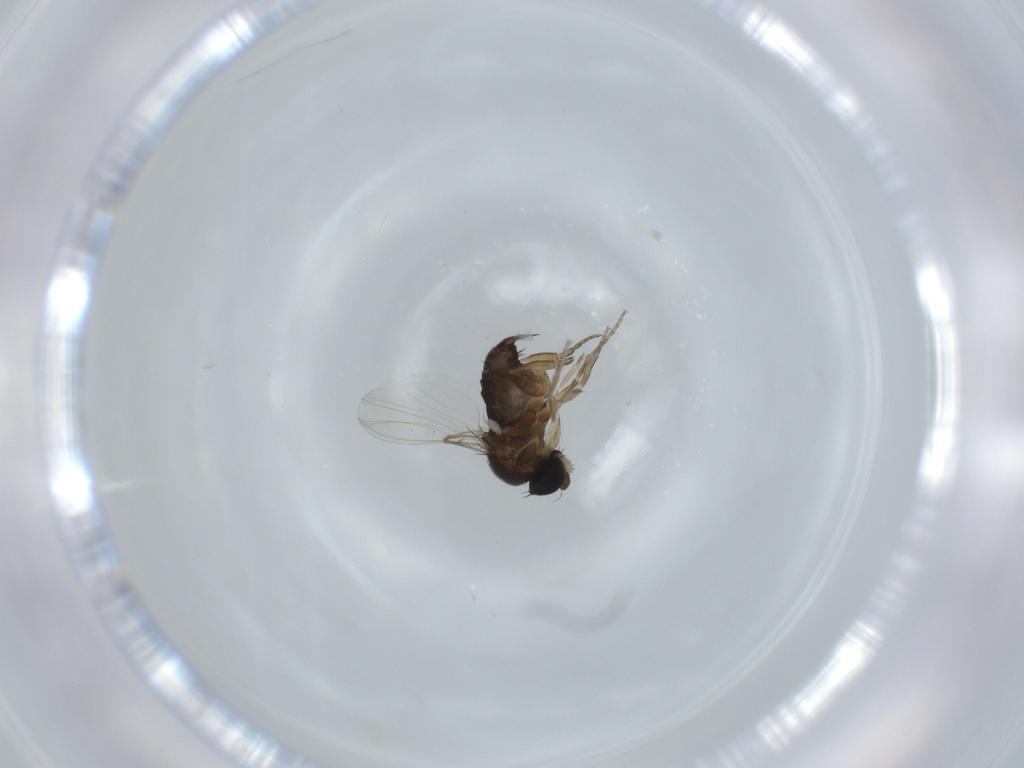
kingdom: Animalia
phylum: Arthropoda
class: Insecta
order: Diptera
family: Phoridae
